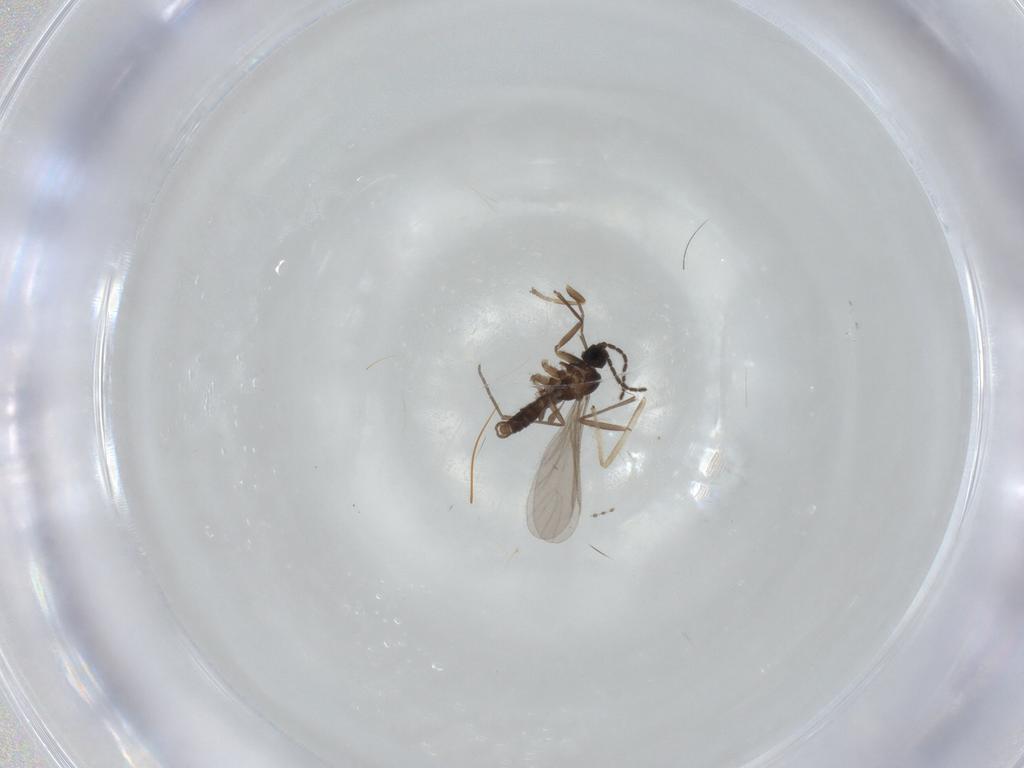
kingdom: Animalia
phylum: Arthropoda
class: Insecta
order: Diptera
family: Sciaridae
